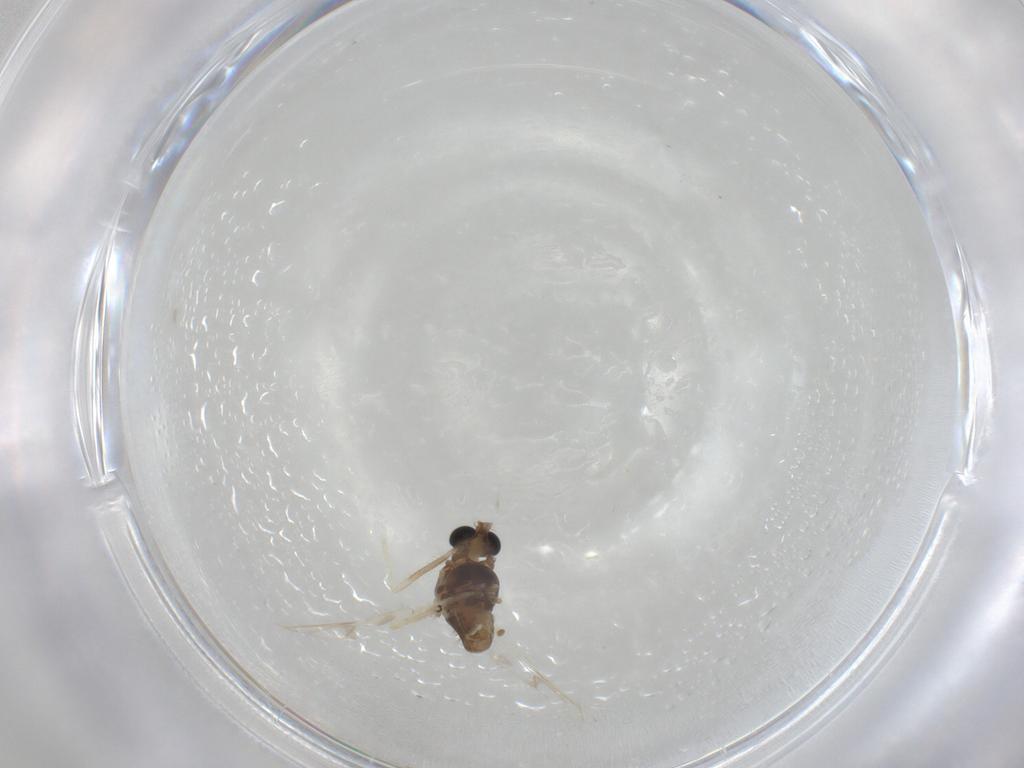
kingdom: Animalia
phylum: Arthropoda
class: Insecta
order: Diptera
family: Chironomidae
